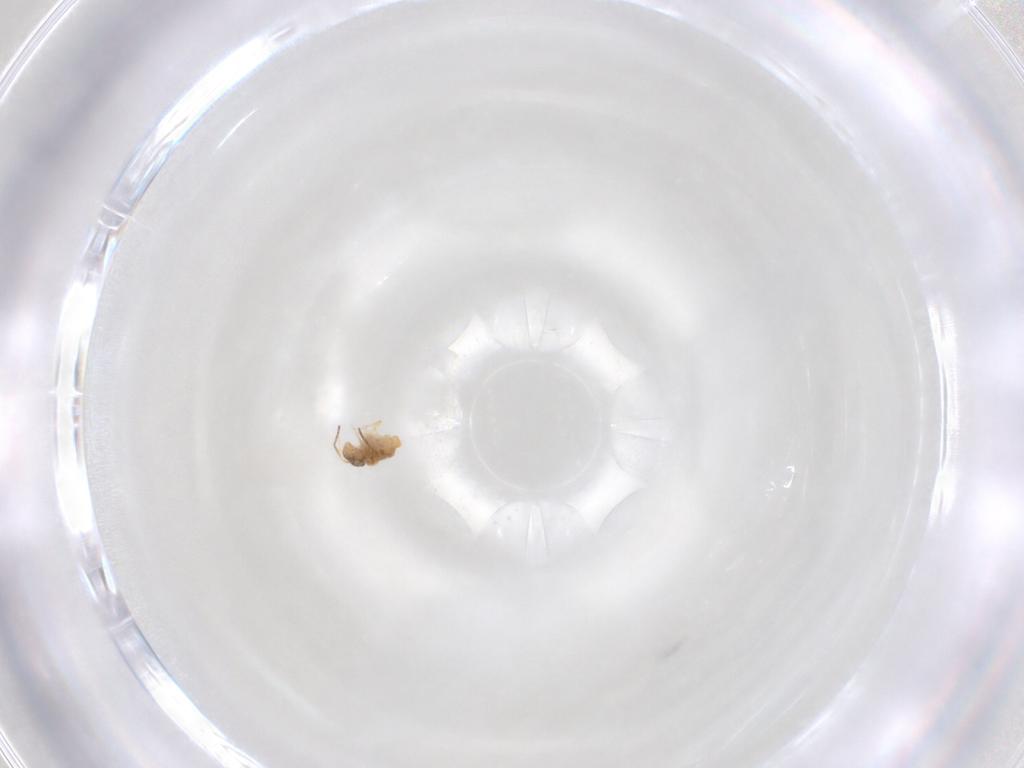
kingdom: Animalia
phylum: Arthropoda
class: Collembola
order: Symphypleona
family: Katiannidae
